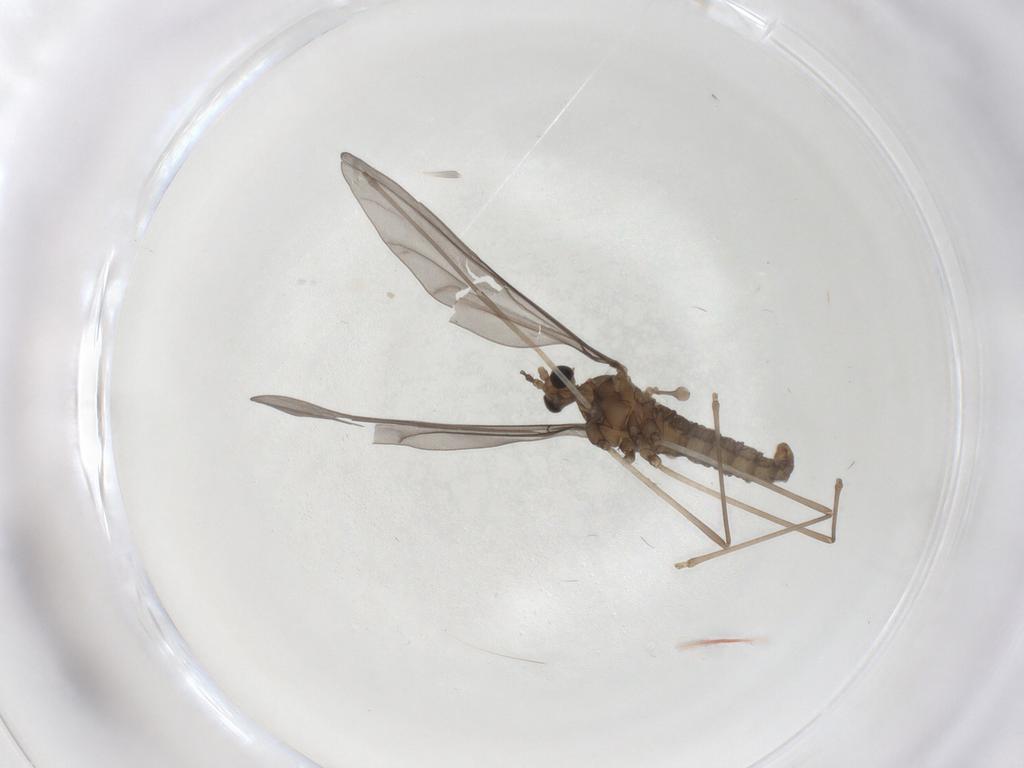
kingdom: Animalia
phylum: Arthropoda
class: Insecta
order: Diptera
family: Cecidomyiidae
